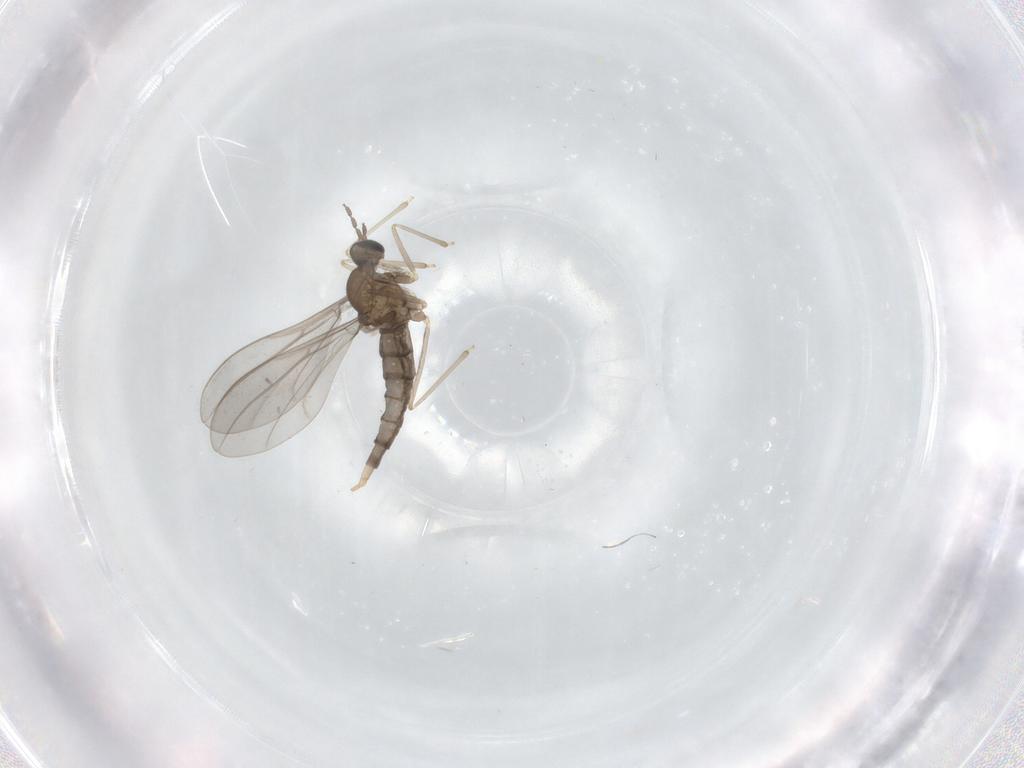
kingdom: Animalia
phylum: Arthropoda
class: Insecta
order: Diptera
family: Cecidomyiidae
